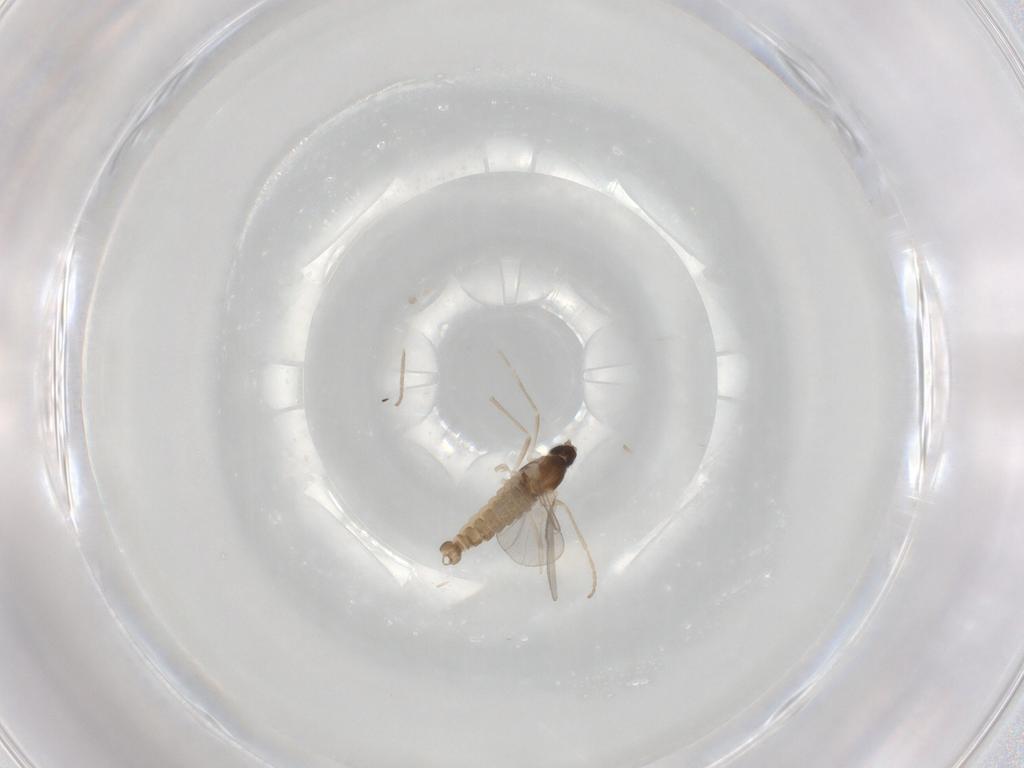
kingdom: Animalia
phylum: Arthropoda
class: Insecta
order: Diptera
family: Cecidomyiidae
